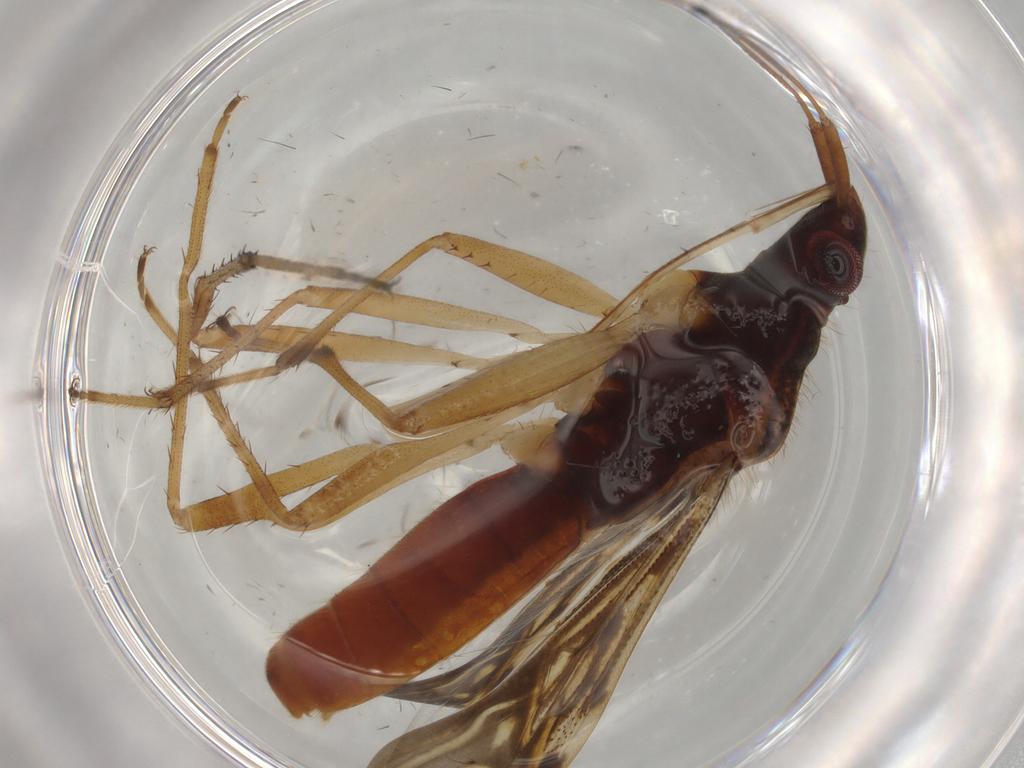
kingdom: Animalia
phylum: Arthropoda
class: Insecta
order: Hemiptera
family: Rhyparochromidae
